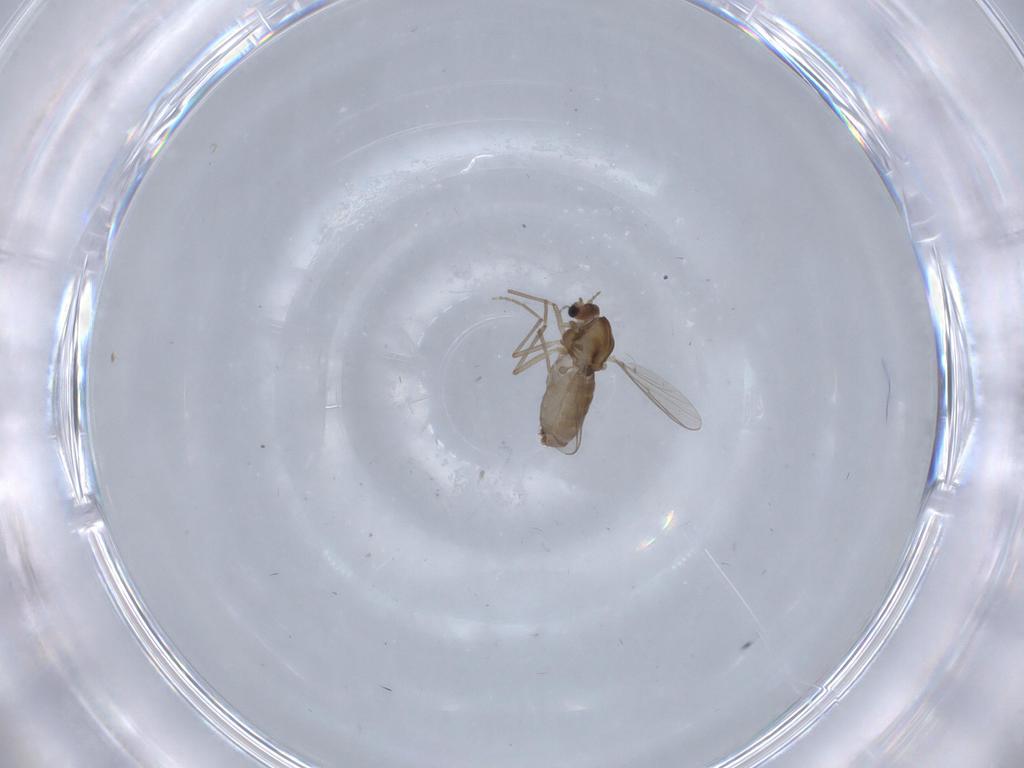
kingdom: Animalia
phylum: Arthropoda
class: Insecta
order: Diptera
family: Chironomidae
